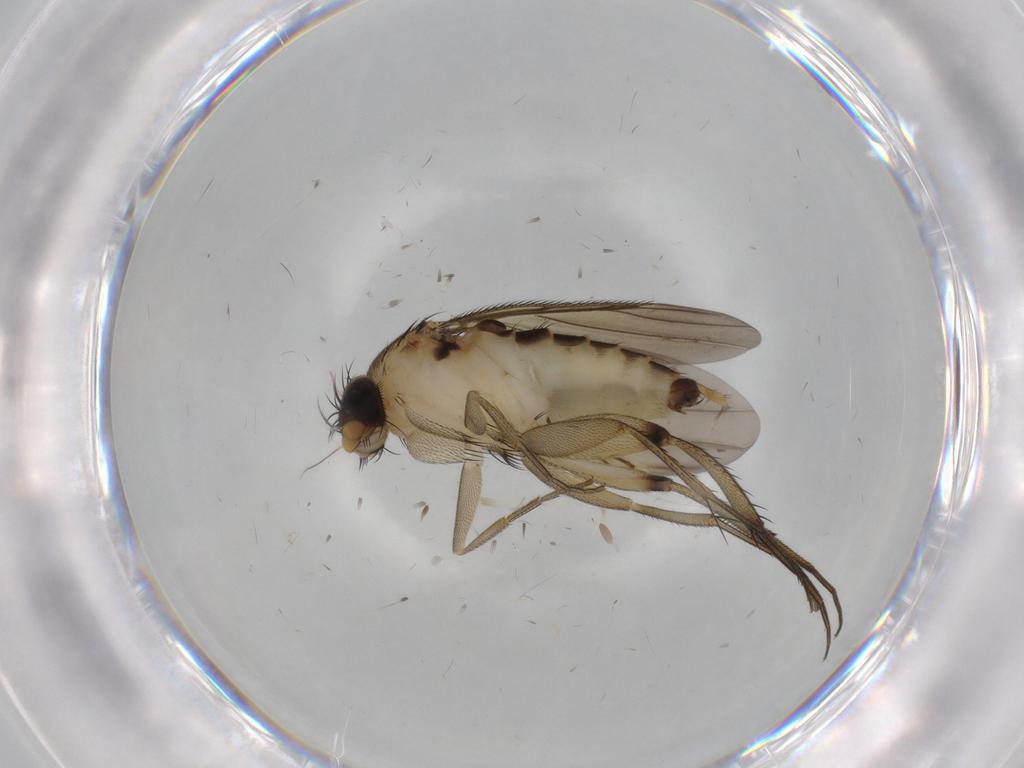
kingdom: Animalia
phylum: Arthropoda
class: Insecta
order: Diptera
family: Phoridae
